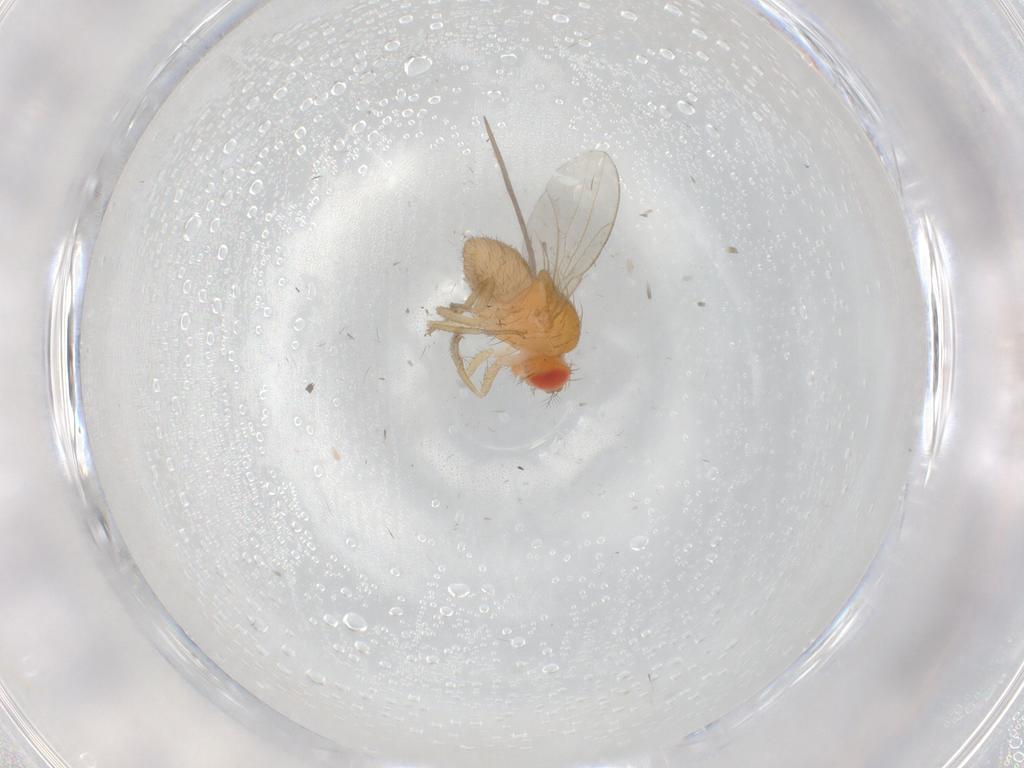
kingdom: Animalia
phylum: Arthropoda
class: Insecta
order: Diptera
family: Drosophilidae
